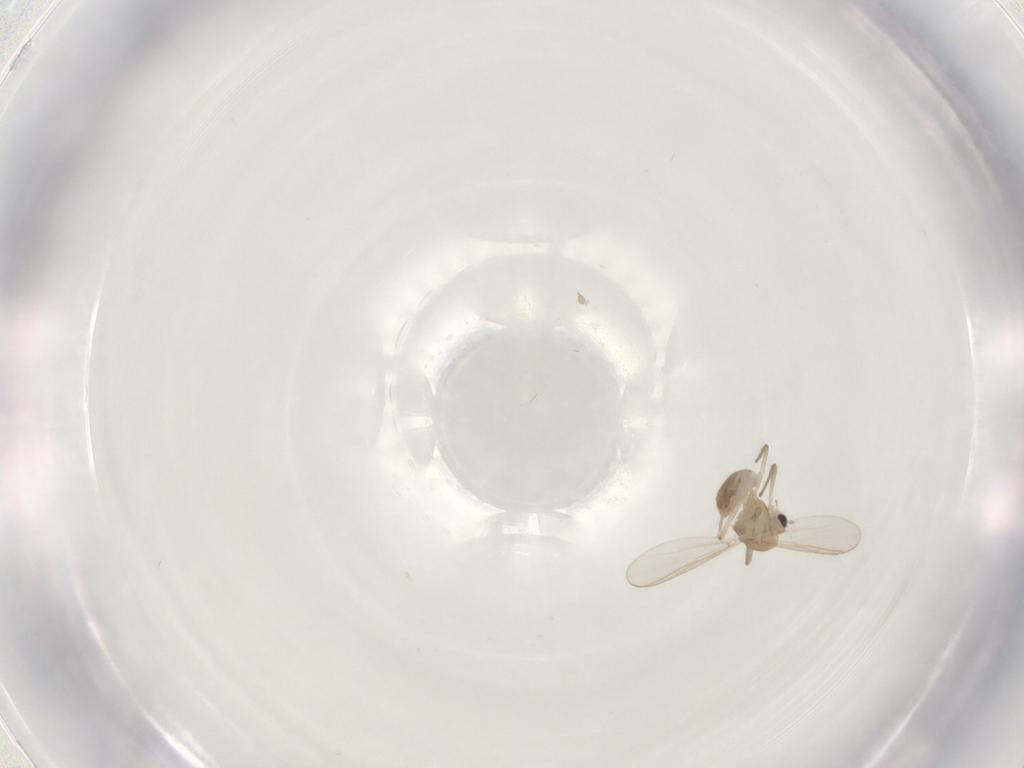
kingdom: Animalia
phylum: Arthropoda
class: Insecta
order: Diptera
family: Chironomidae
